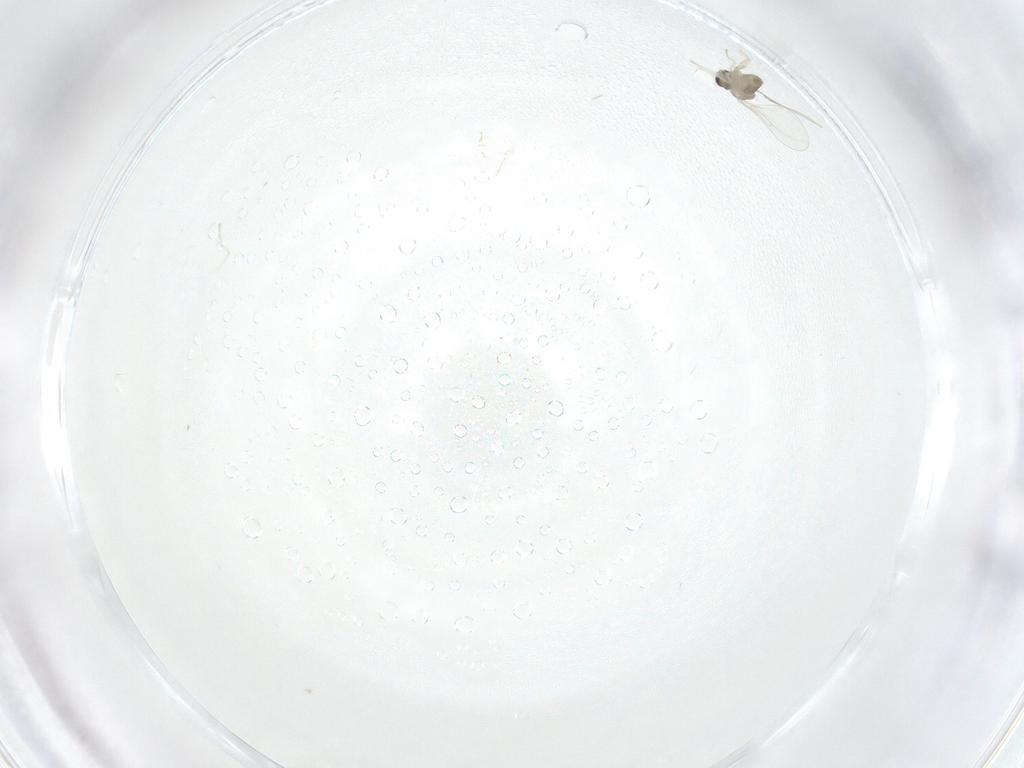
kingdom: Animalia
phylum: Arthropoda
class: Insecta
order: Diptera
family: Cecidomyiidae
